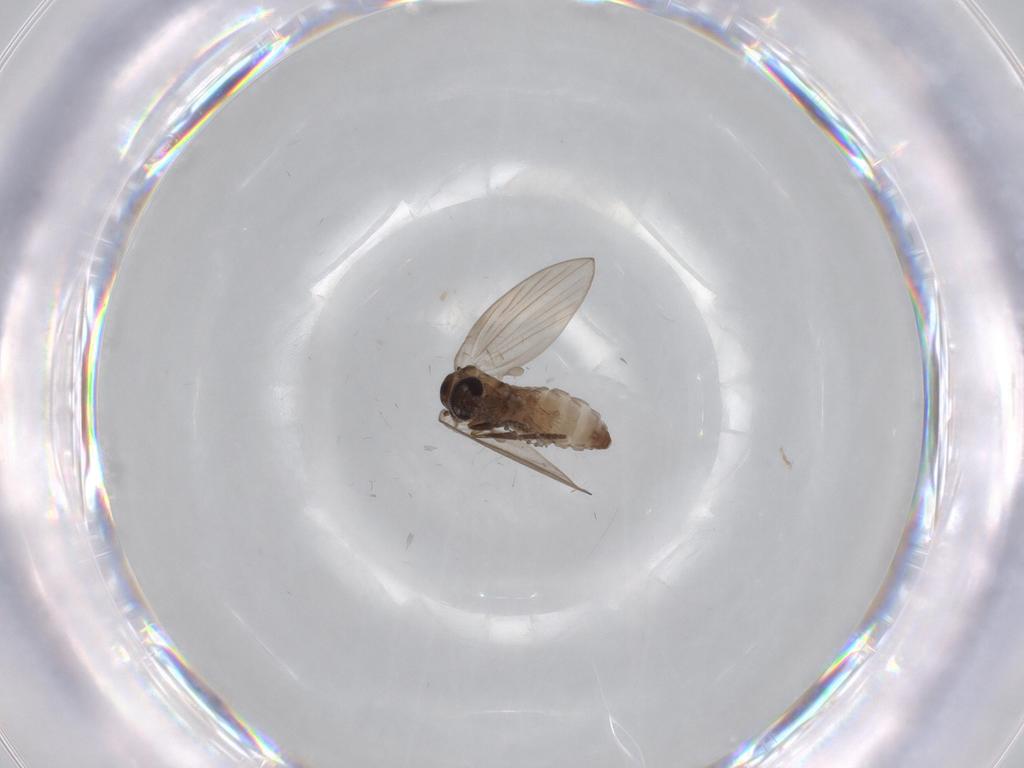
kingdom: Animalia
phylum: Arthropoda
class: Insecta
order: Diptera
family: Psychodidae
